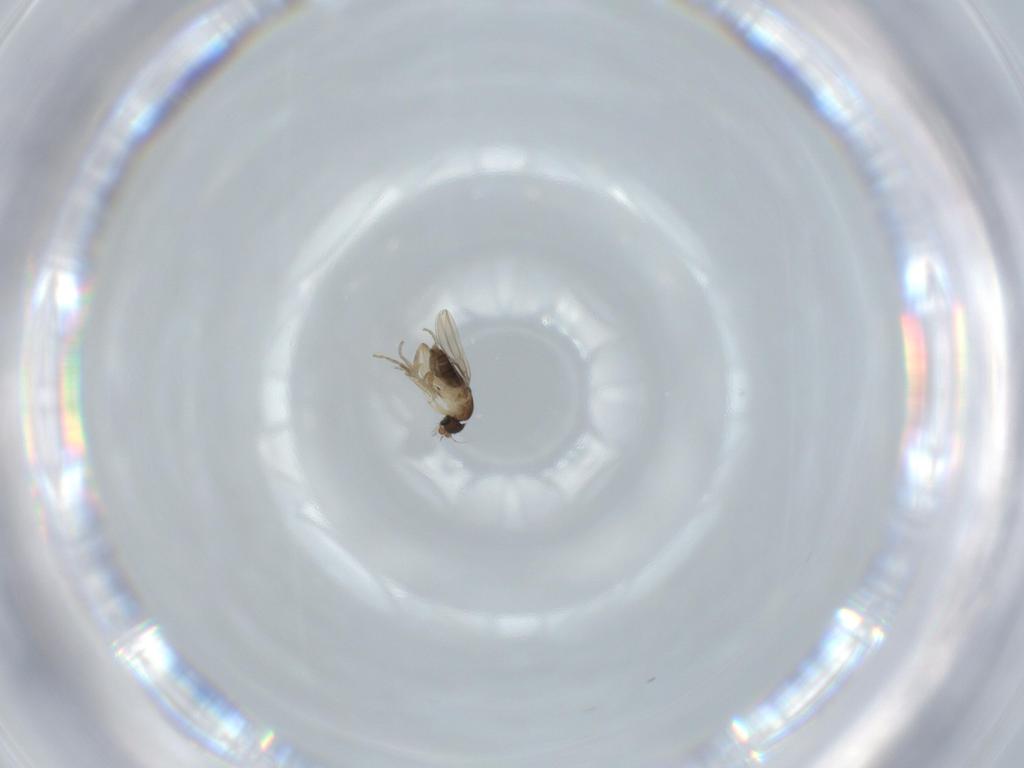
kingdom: Animalia
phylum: Arthropoda
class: Insecta
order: Diptera
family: Phoridae
